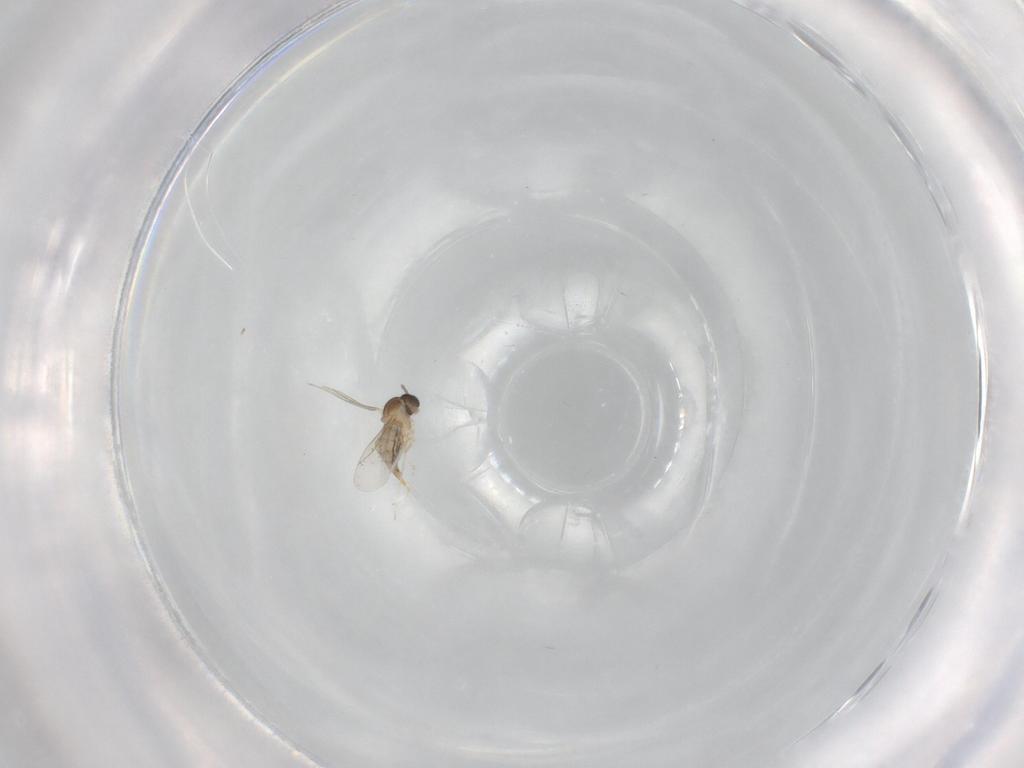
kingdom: Animalia
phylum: Arthropoda
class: Insecta
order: Diptera
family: Cecidomyiidae
